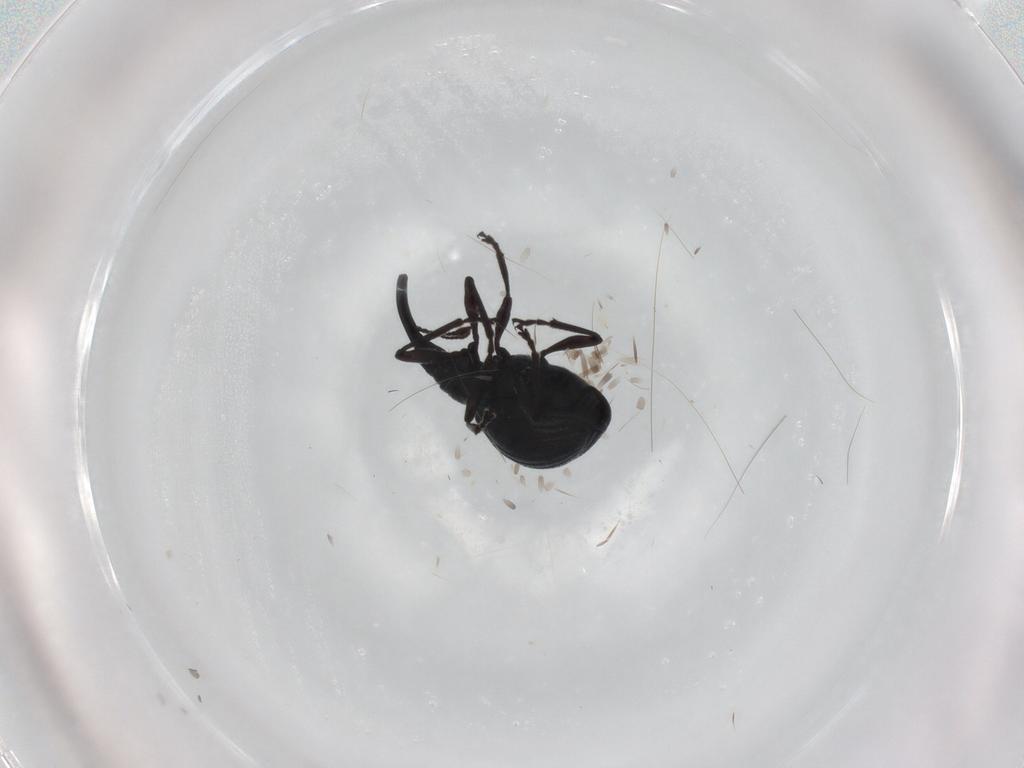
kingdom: Animalia
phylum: Arthropoda
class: Insecta
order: Coleoptera
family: Brentidae
